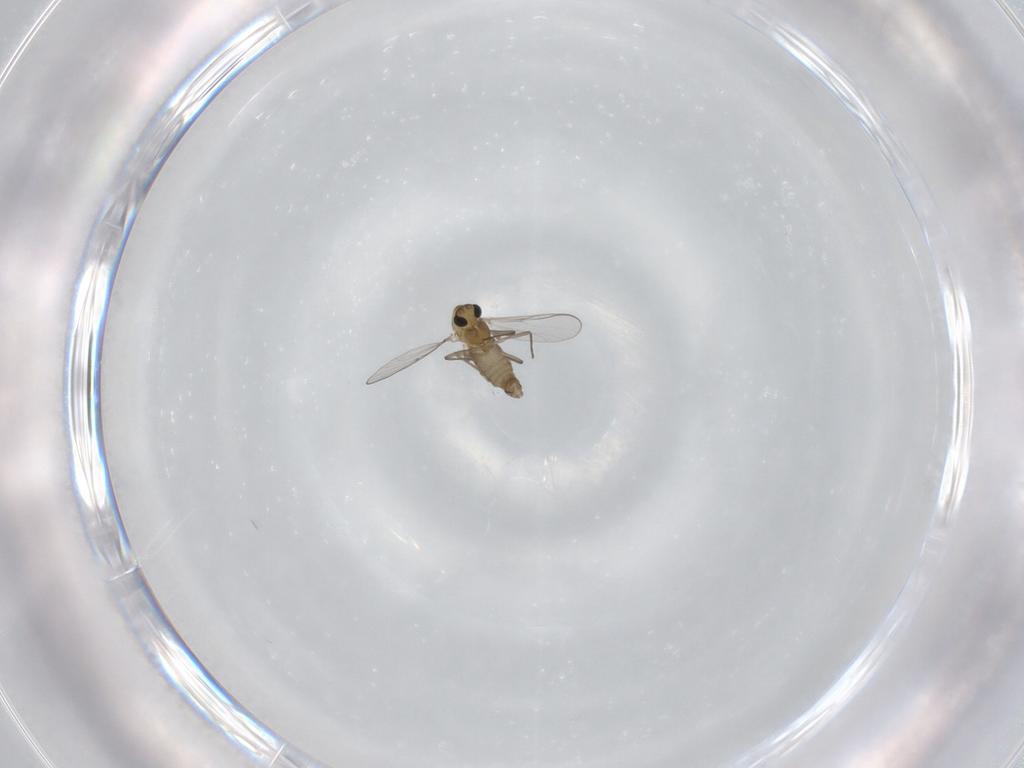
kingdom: Animalia
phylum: Arthropoda
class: Insecta
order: Diptera
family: Chironomidae
